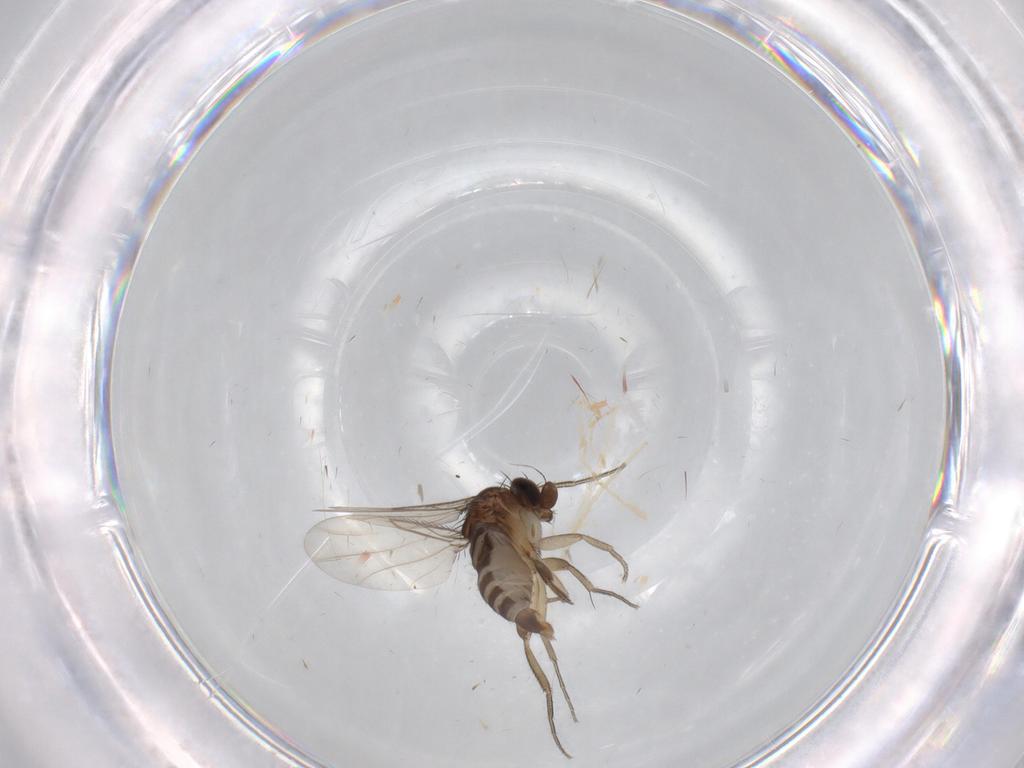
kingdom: Animalia
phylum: Arthropoda
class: Insecta
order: Diptera
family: Phoridae
